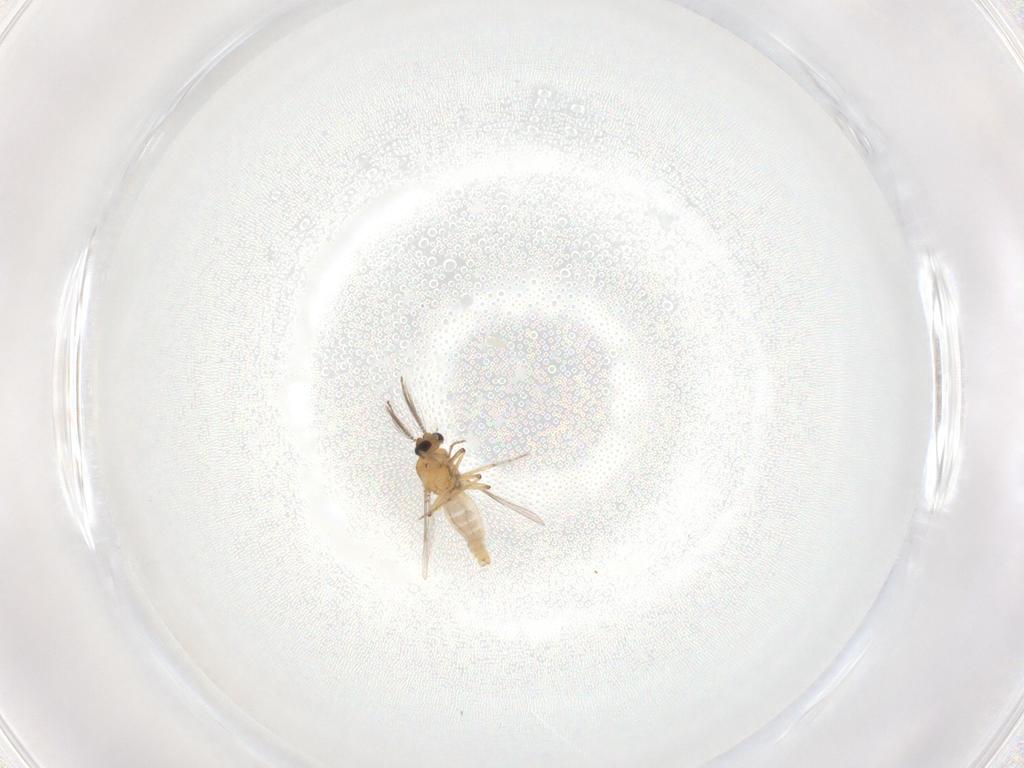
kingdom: Animalia
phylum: Arthropoda
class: Insecta
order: Diptera
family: Ceratopogonidae
